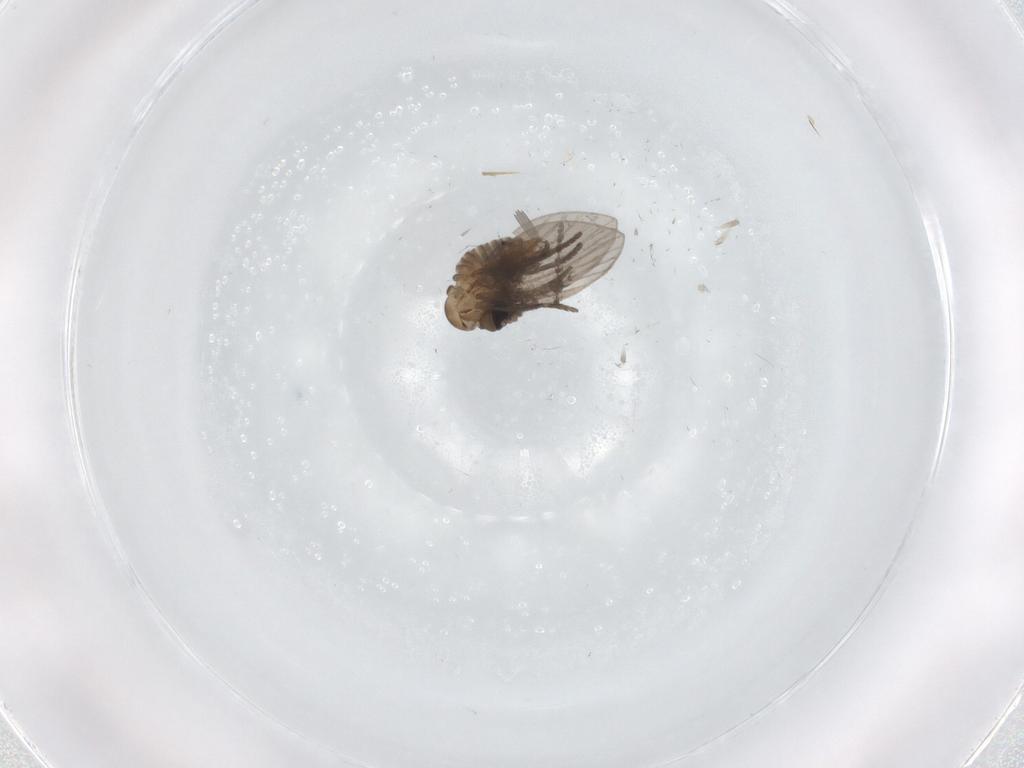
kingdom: Animalia
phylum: Arthropoda
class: Insecta
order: Diptera
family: Psychodidae
